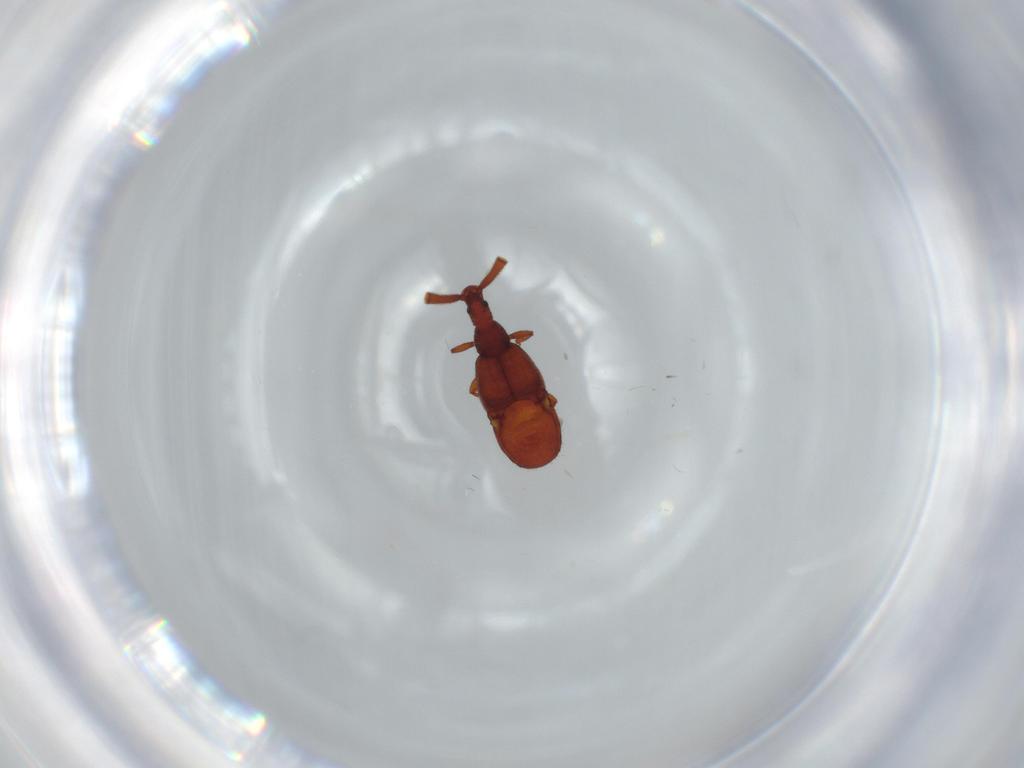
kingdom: Animalia
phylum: Arthropoda
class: Insecta
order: Coleoptera
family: Staphylinidae
